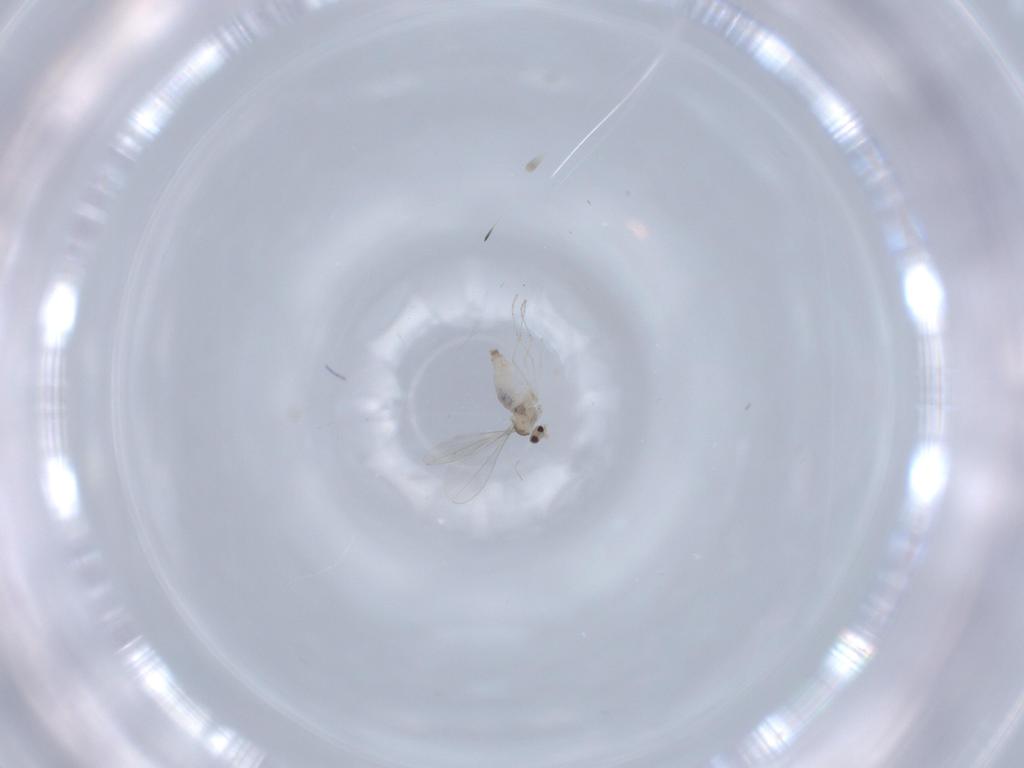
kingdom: Animalia
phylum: Arthropoda
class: Insecta
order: Diptera
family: Cecidomyiidae
